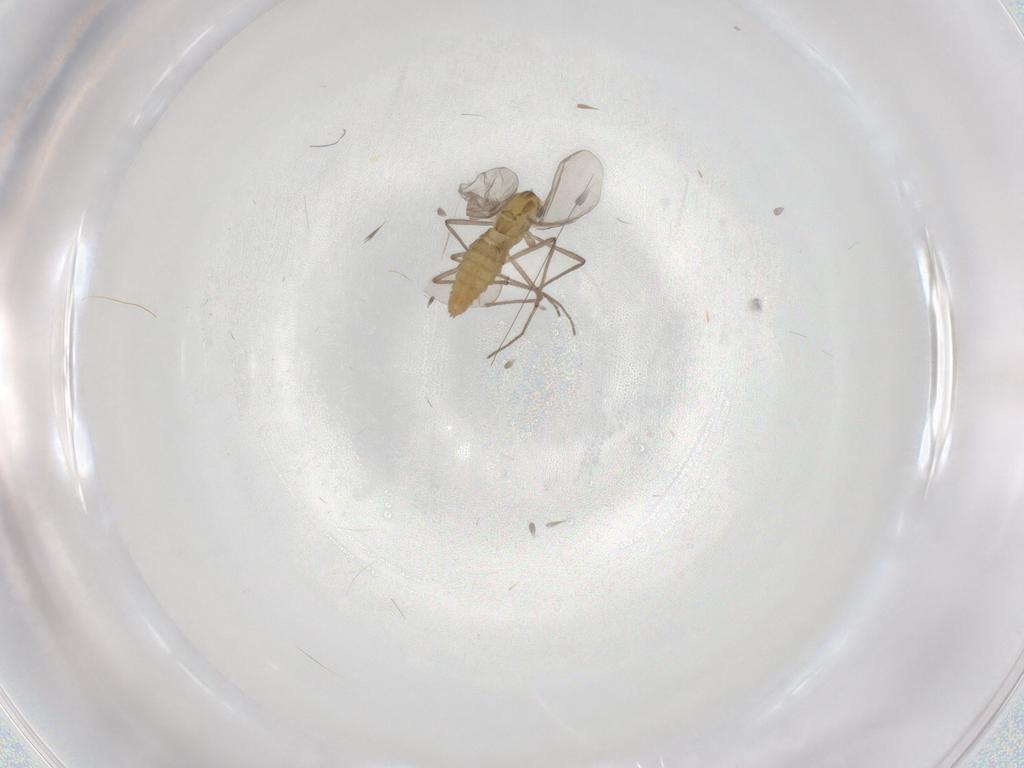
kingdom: Animalia
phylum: Arthropoda
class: Insecta
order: Diptera
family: Chironomidae
